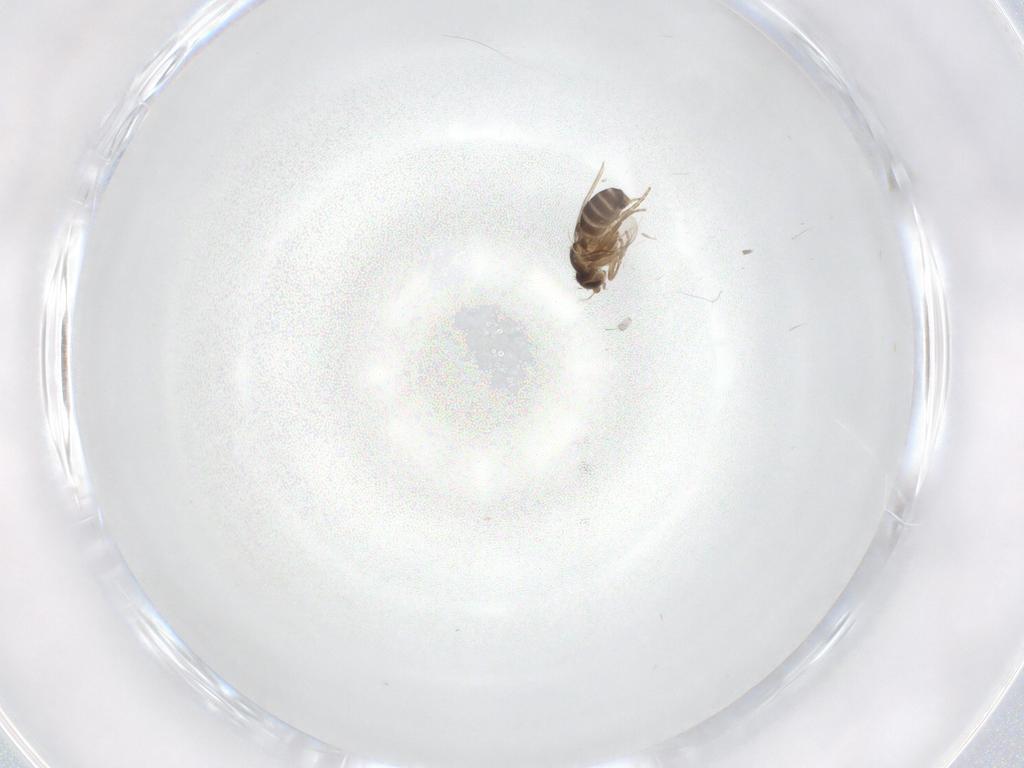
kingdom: Animalia
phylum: Arthropoda
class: Insecta
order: Diptera
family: Phoridae
